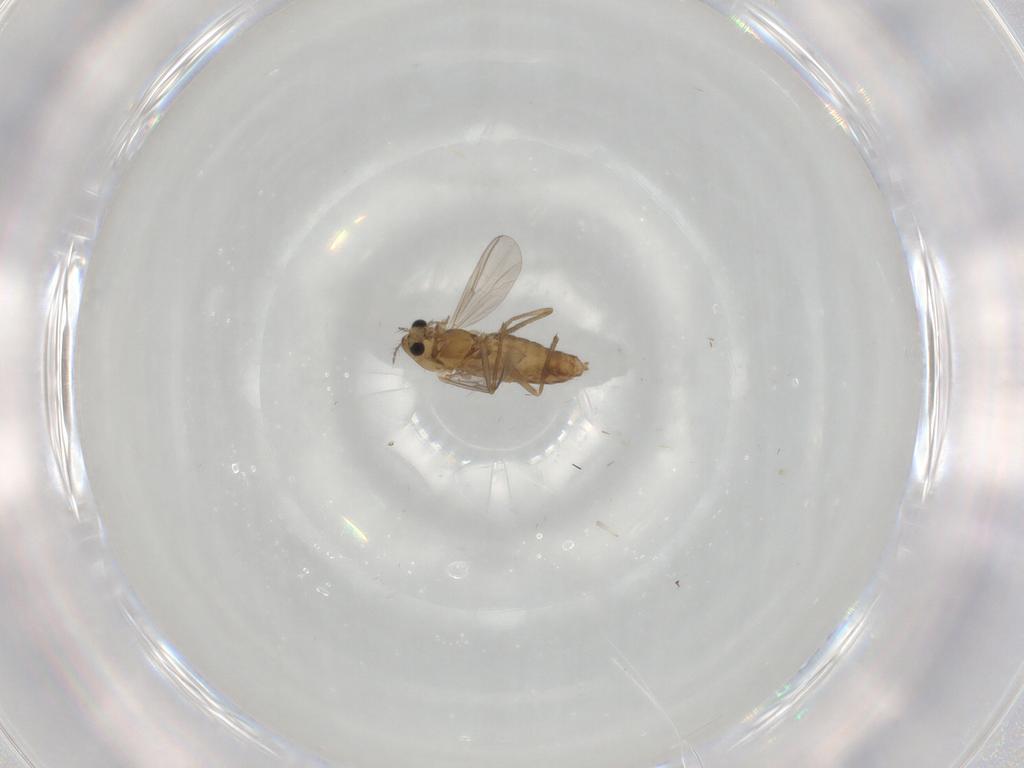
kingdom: Animalia
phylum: Arthropoda
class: Insecta
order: Diptera
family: Chironomidae
